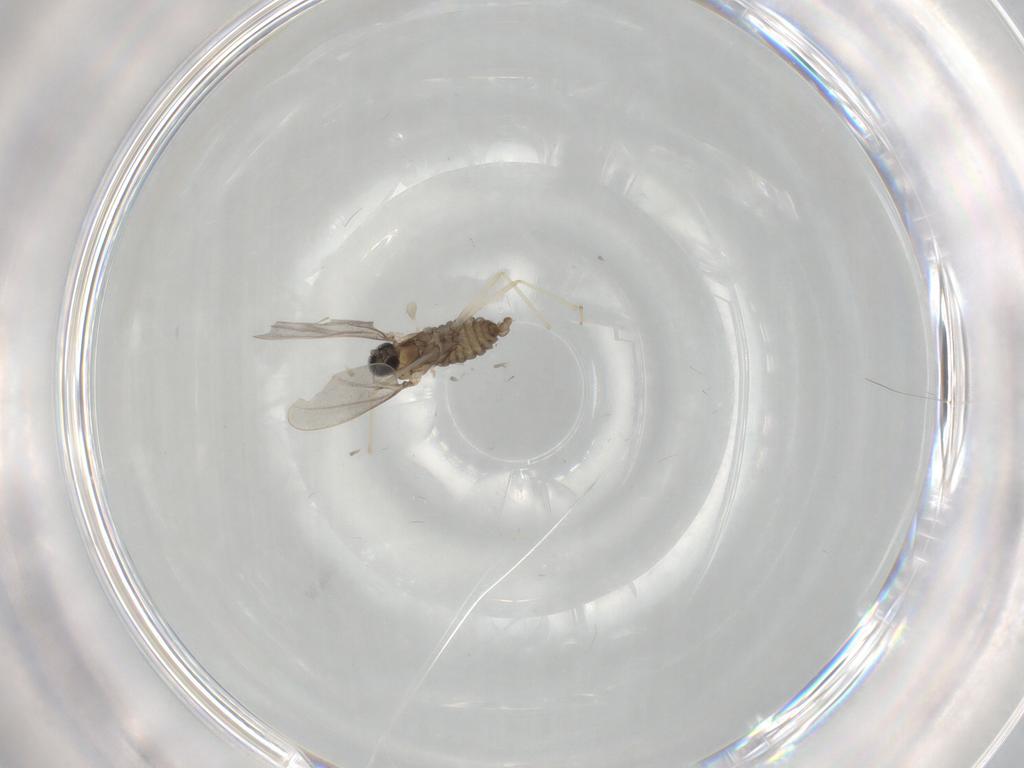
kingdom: Animalia
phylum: Arthropoda
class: Insecta
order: Diptera
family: Cecidomyiidae
